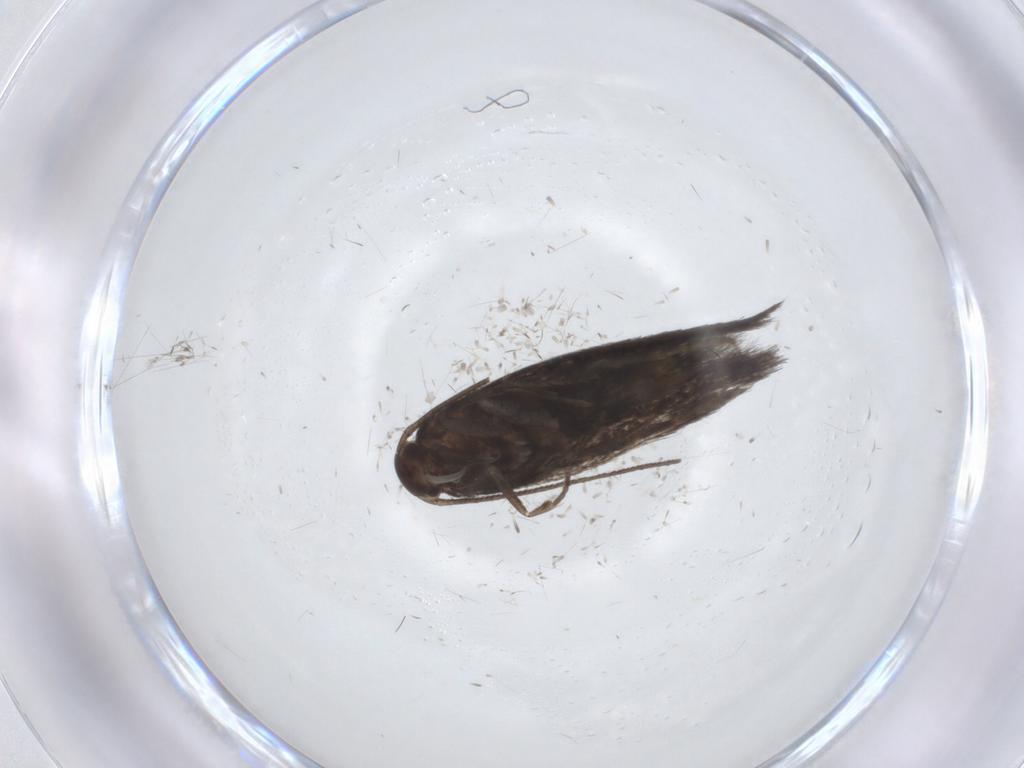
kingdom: Animalia
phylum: Arthropoda
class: Insecta
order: Lepidoptera
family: Elachistidae
